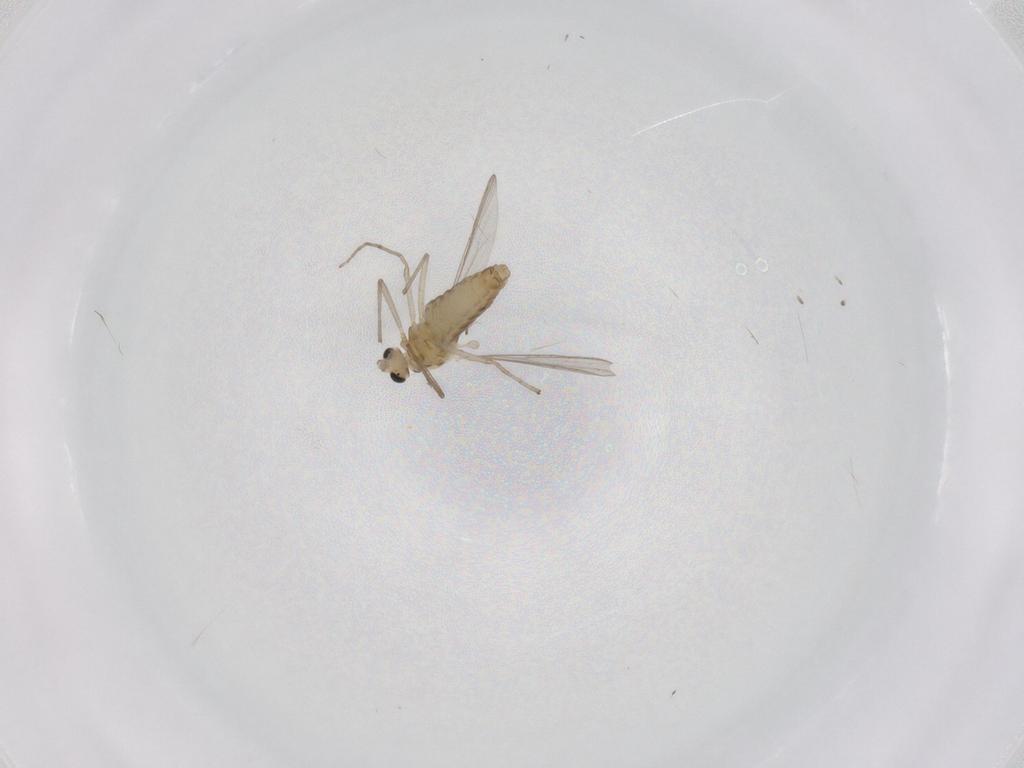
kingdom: Animalia
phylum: Arthropoda
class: Insecta
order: Diptera
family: Chironomidae
